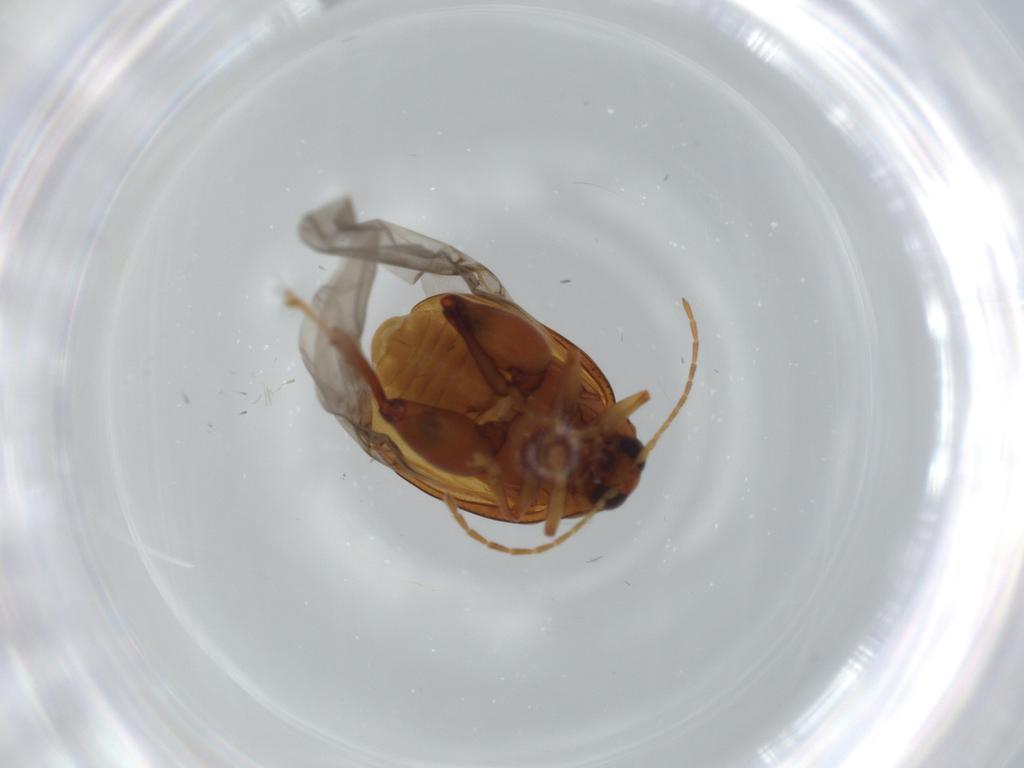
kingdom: Animalia
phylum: Arthropoda
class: Insecta
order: Coleoptera
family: Chrysomelidae
